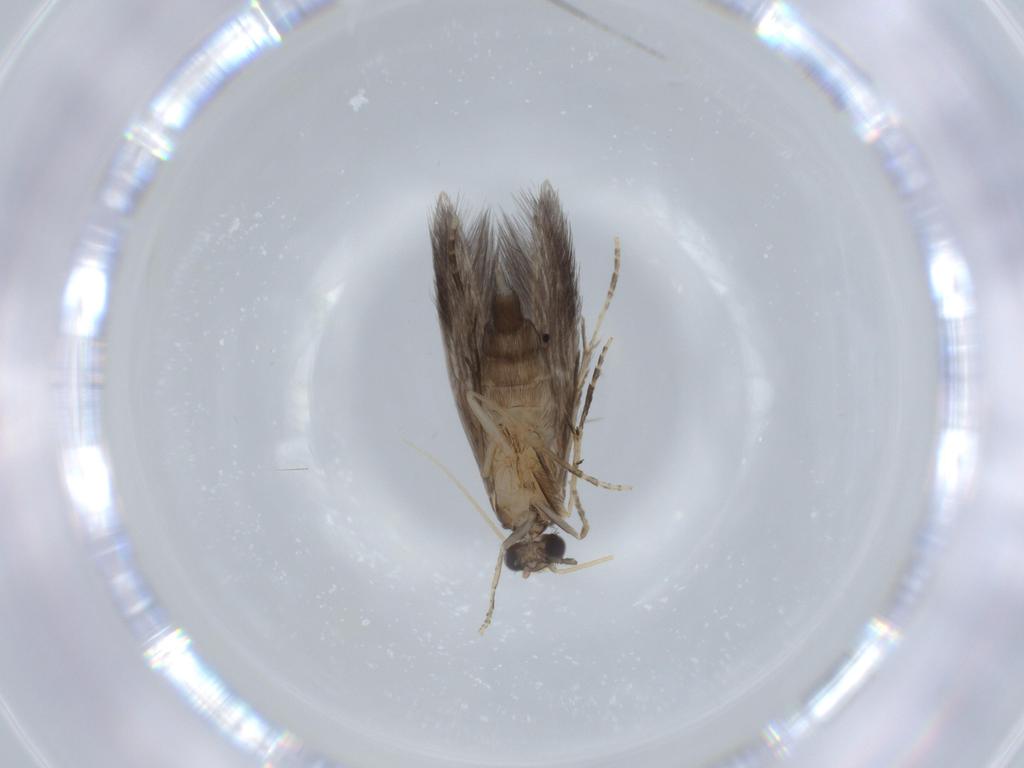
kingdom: Animalia
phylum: Arthropoda
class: Insecta
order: Trichoptera
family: Hydroptilidae
